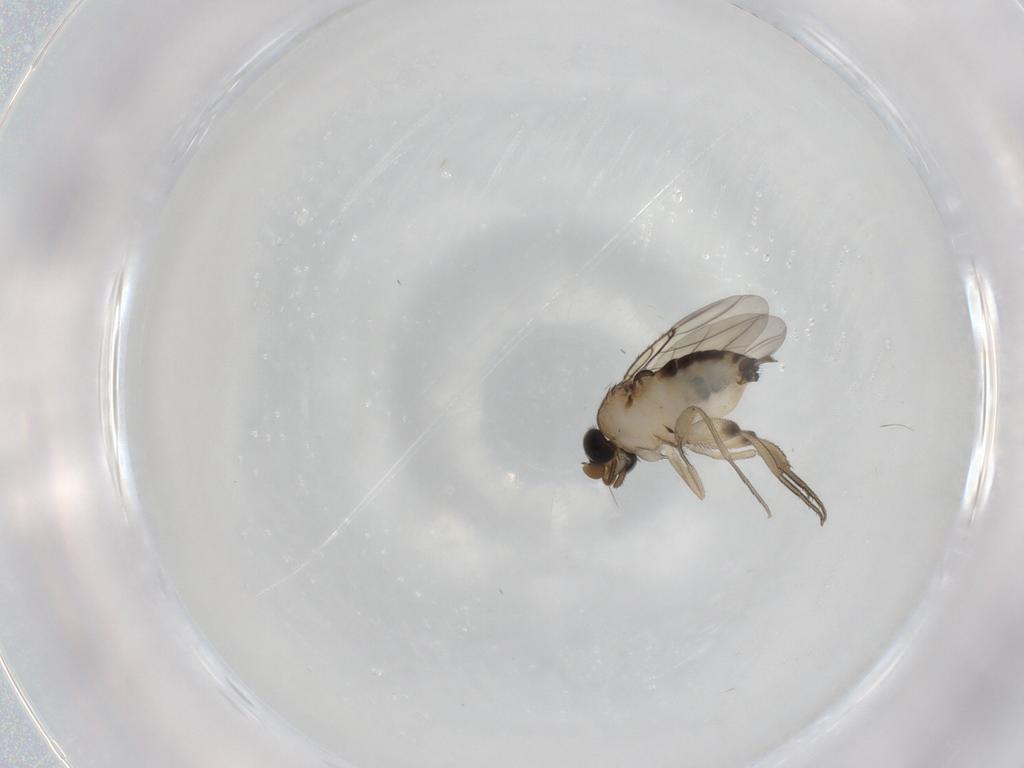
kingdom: Animalia
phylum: Arthropoda
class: Insecta
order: Diptera
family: Phoridae
